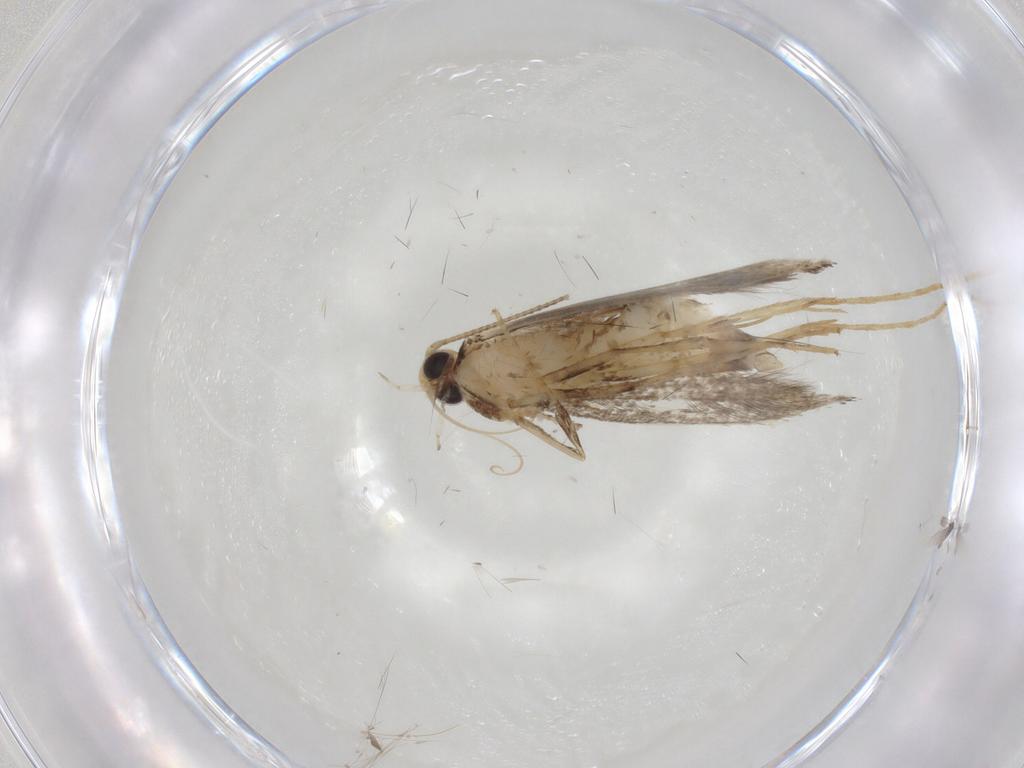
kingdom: Animalia
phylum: Arthropoda
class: Insecta
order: Lepidoptera
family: Gracillariidae
